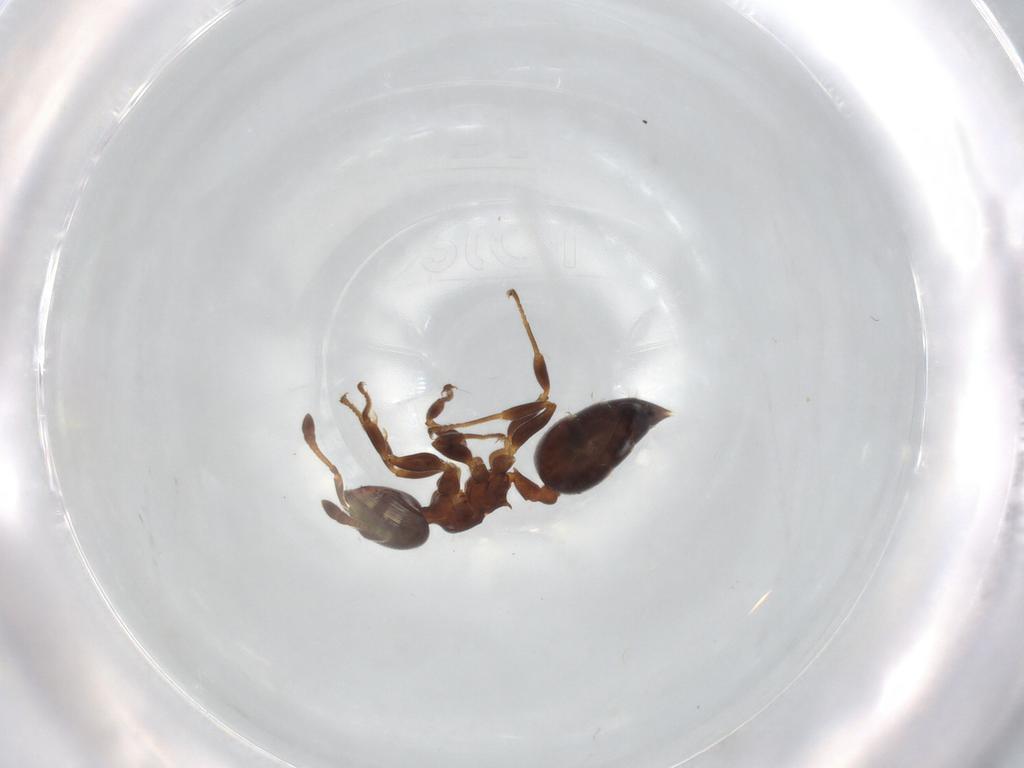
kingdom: Animalia
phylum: Arthropoda
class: Insecta
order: Hymenoptera
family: Formicidae
